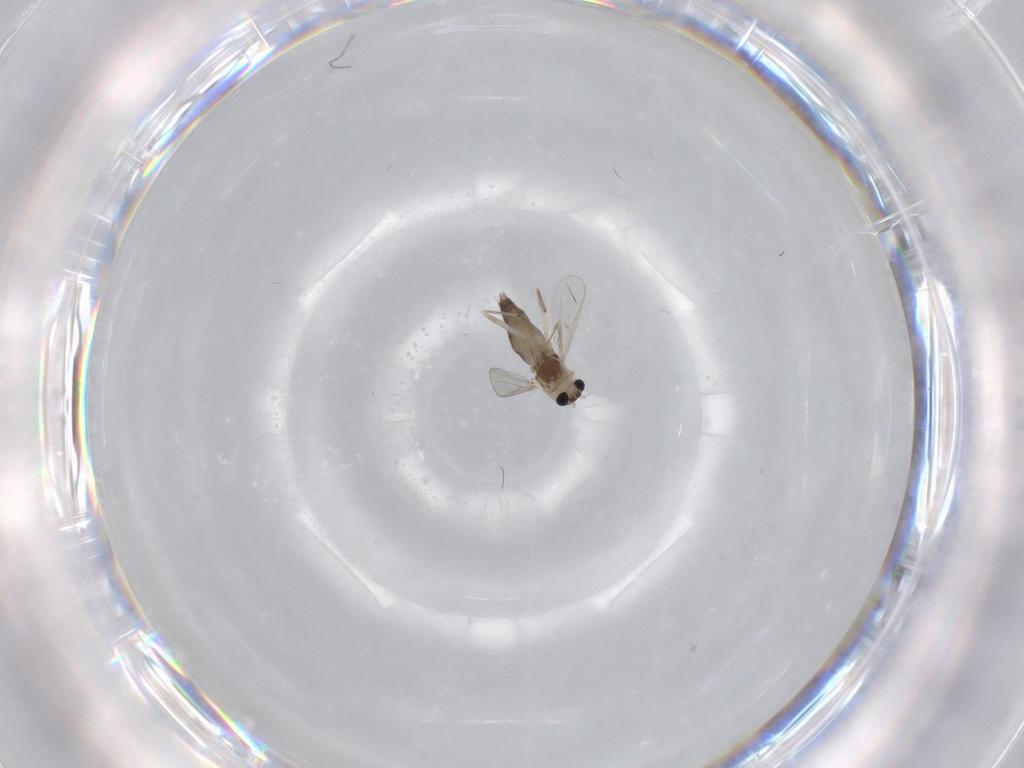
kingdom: Animalia
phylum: Arthropoda
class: Insecta
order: Diptera
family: Chironomidae
